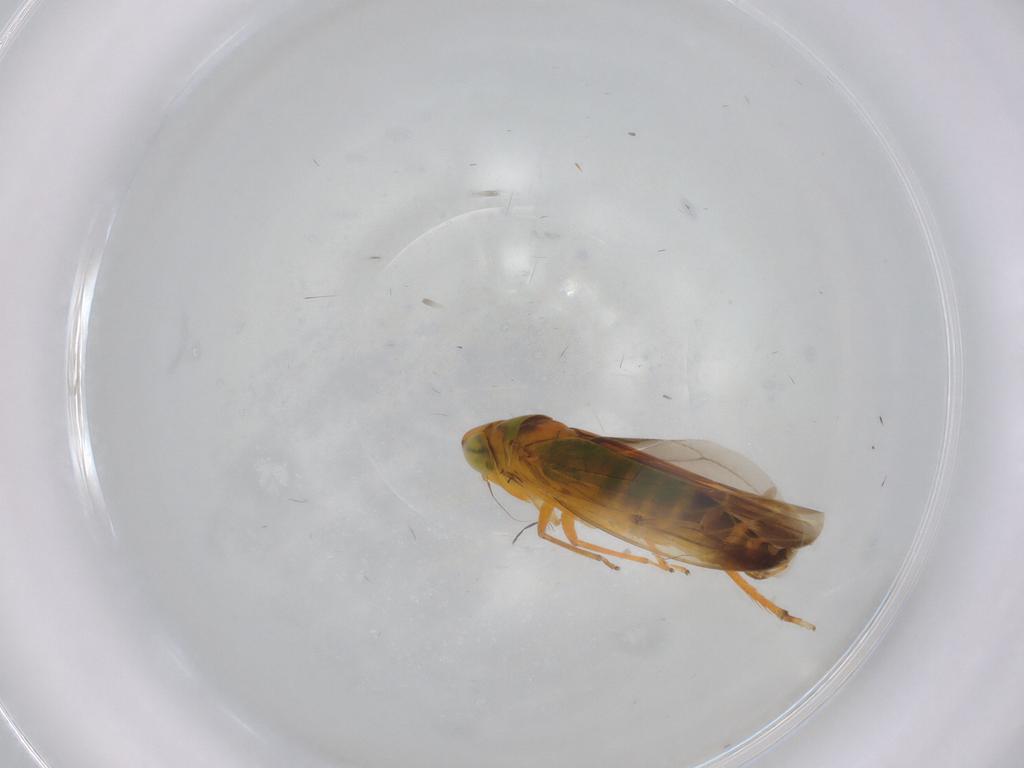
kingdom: Animalia
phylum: Arthropoda
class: Insecta
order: Hemiptera
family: Cicadellidae
